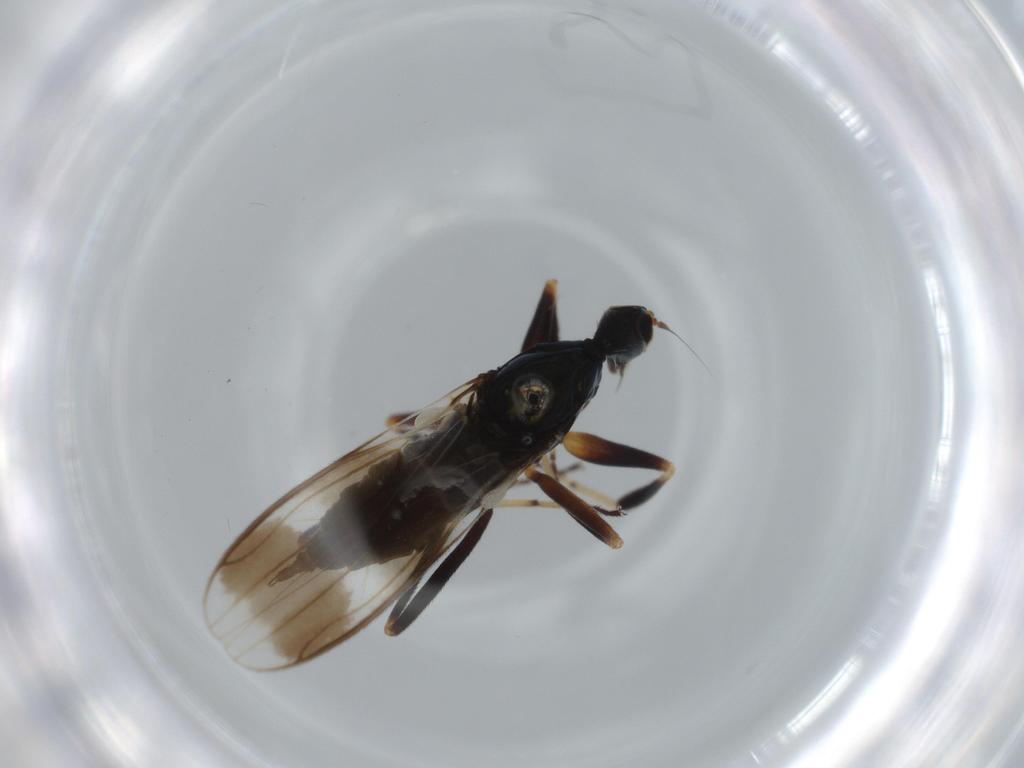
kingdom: Animalia
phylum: Arthropoda
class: Insecta
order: Diptera
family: Hybotidae
